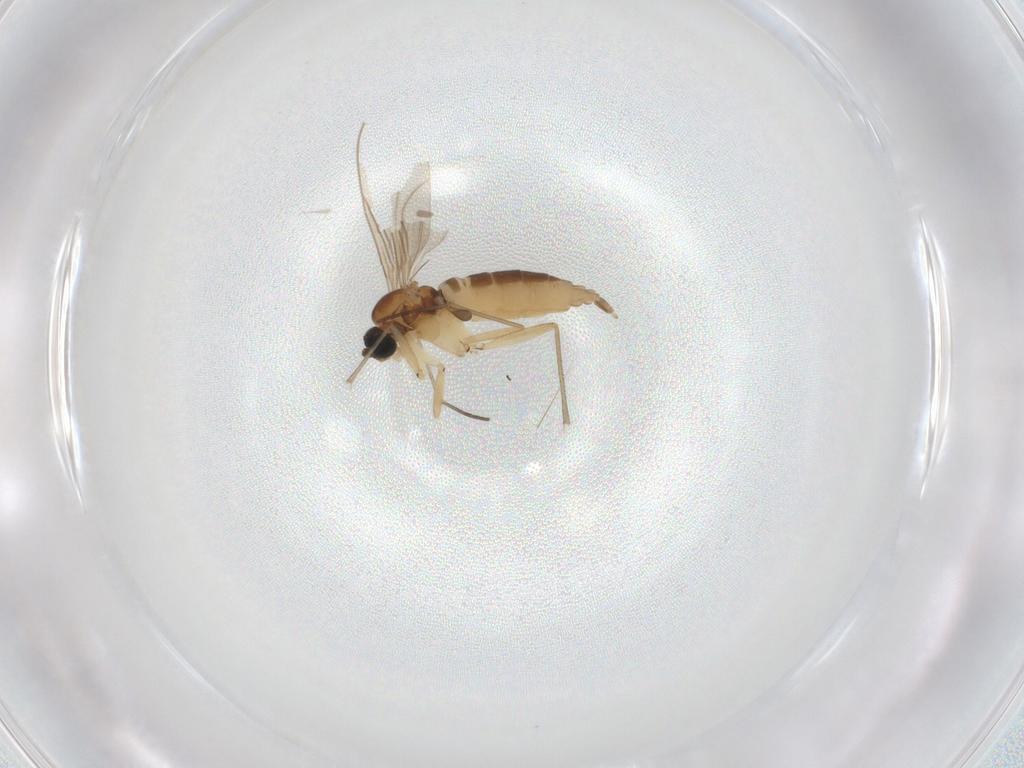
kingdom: Animalia
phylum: Arthropoda
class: Insecta
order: Diptera
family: Sciaridae
